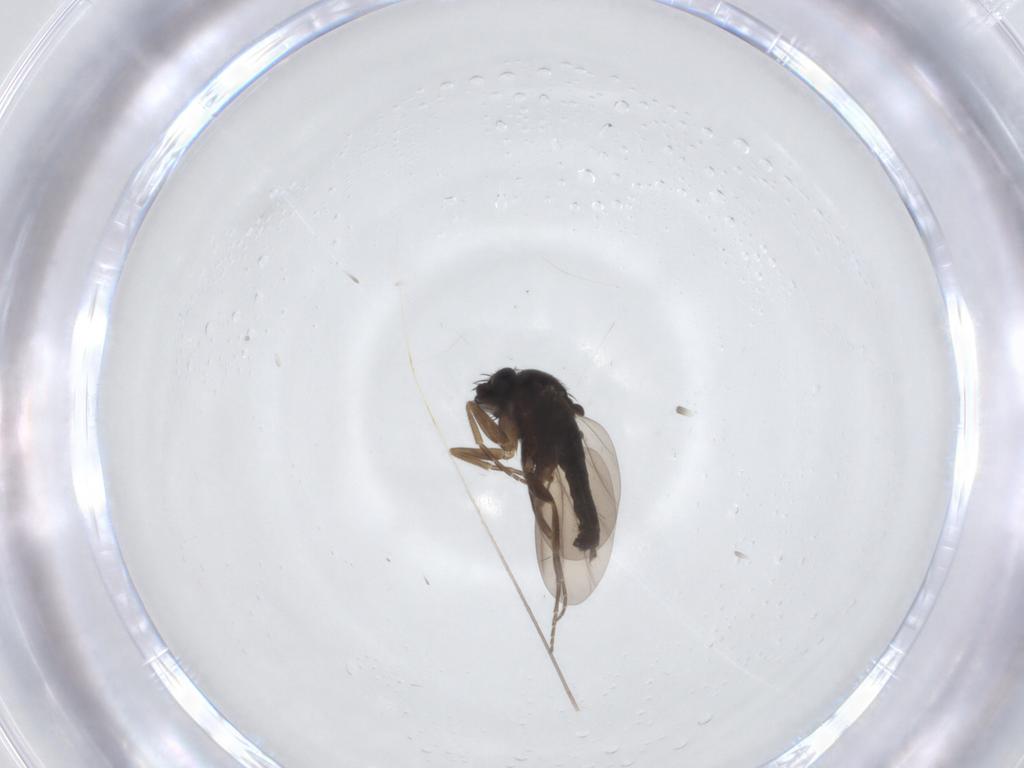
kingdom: Animalia
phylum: Arthropoda
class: Insecta
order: Diptera
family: Phoridae
